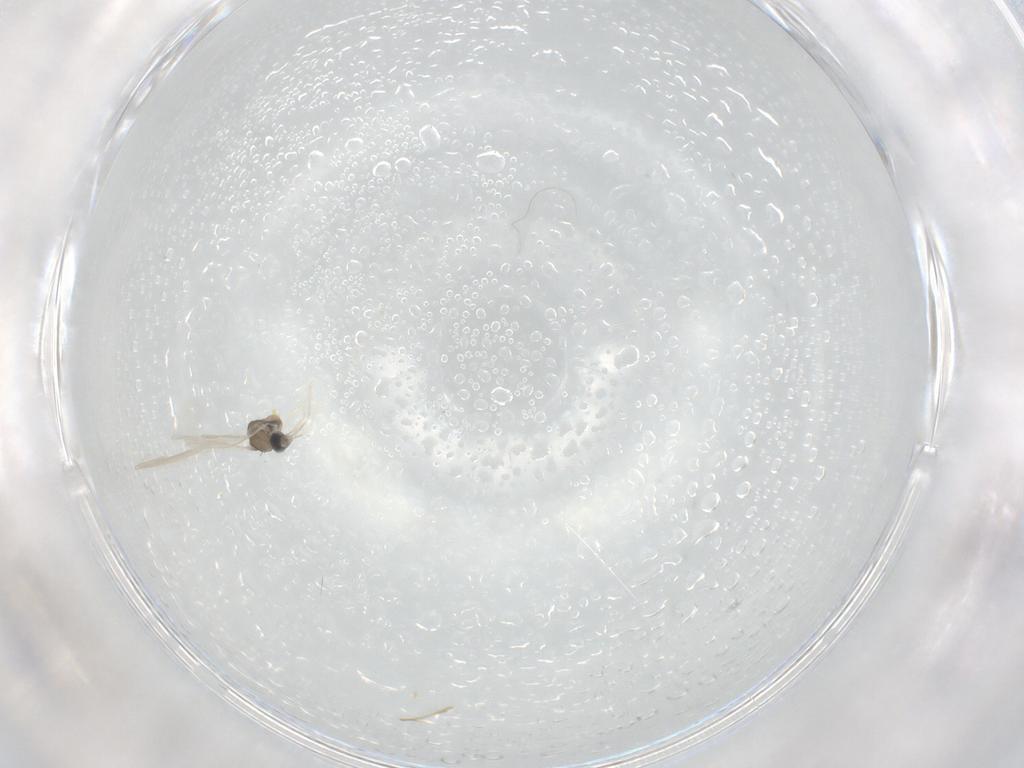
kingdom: Animalia
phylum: Arthropoda
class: Insecta
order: Diptera
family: Cecidomyiidae
